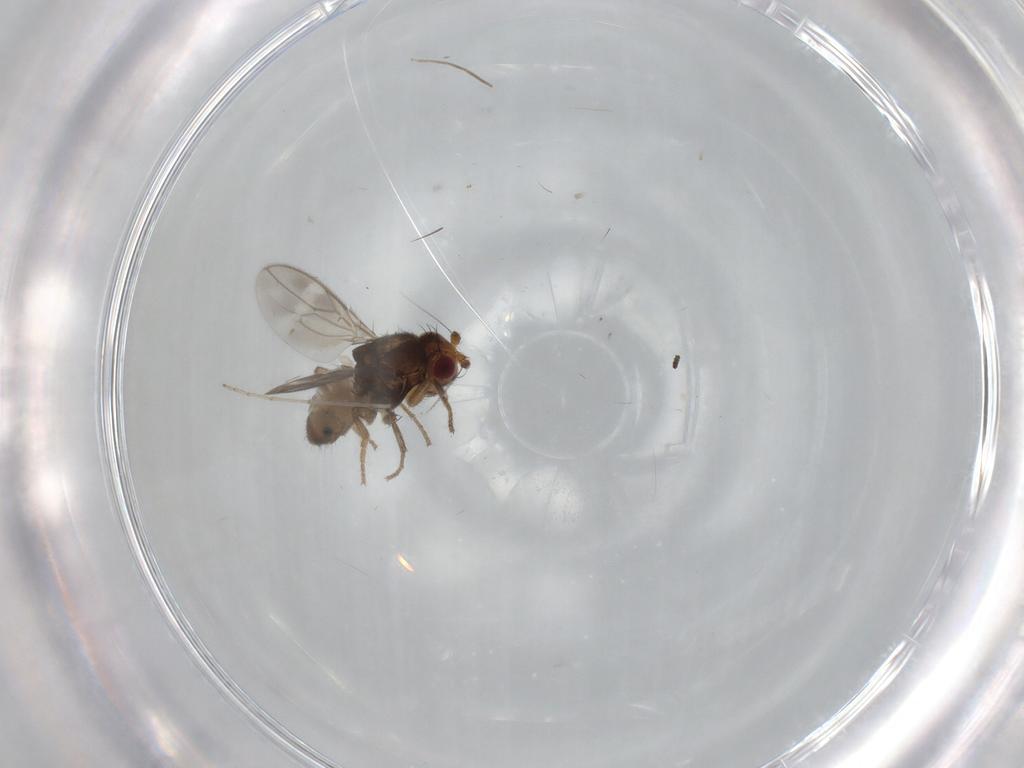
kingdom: Animalia
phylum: Arthropoda
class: Insecta
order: Diptera
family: Sphaeroceridae
